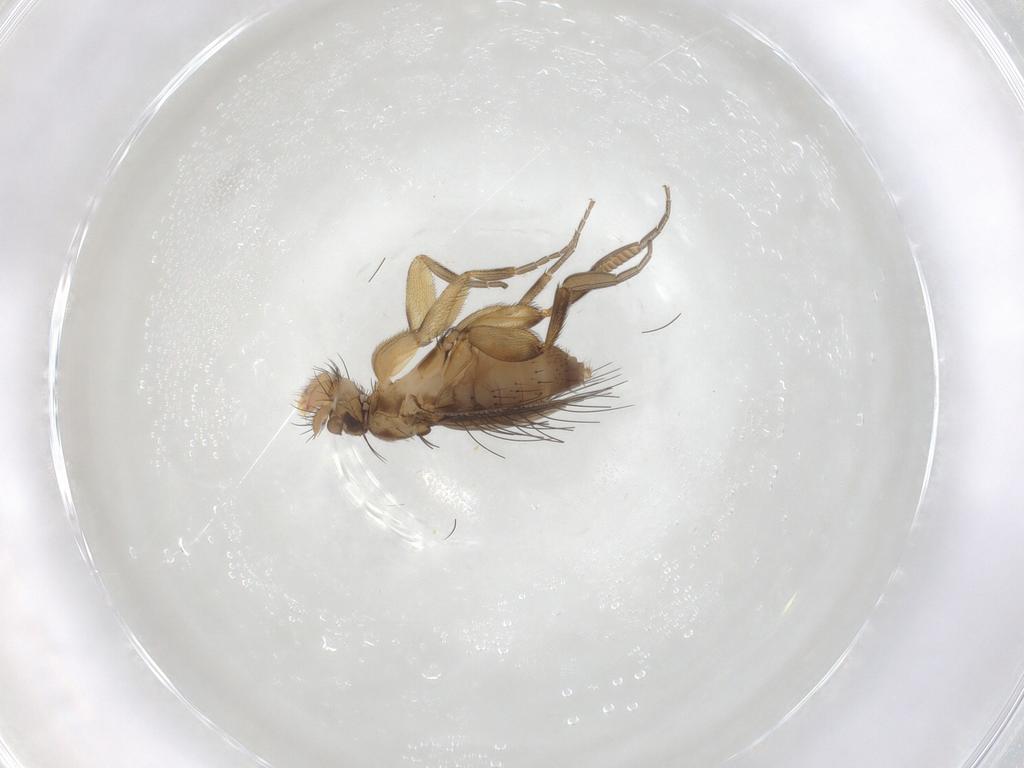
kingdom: Animalia
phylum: Arthropoda
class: Insecta
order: Diptera
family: Phoridae
